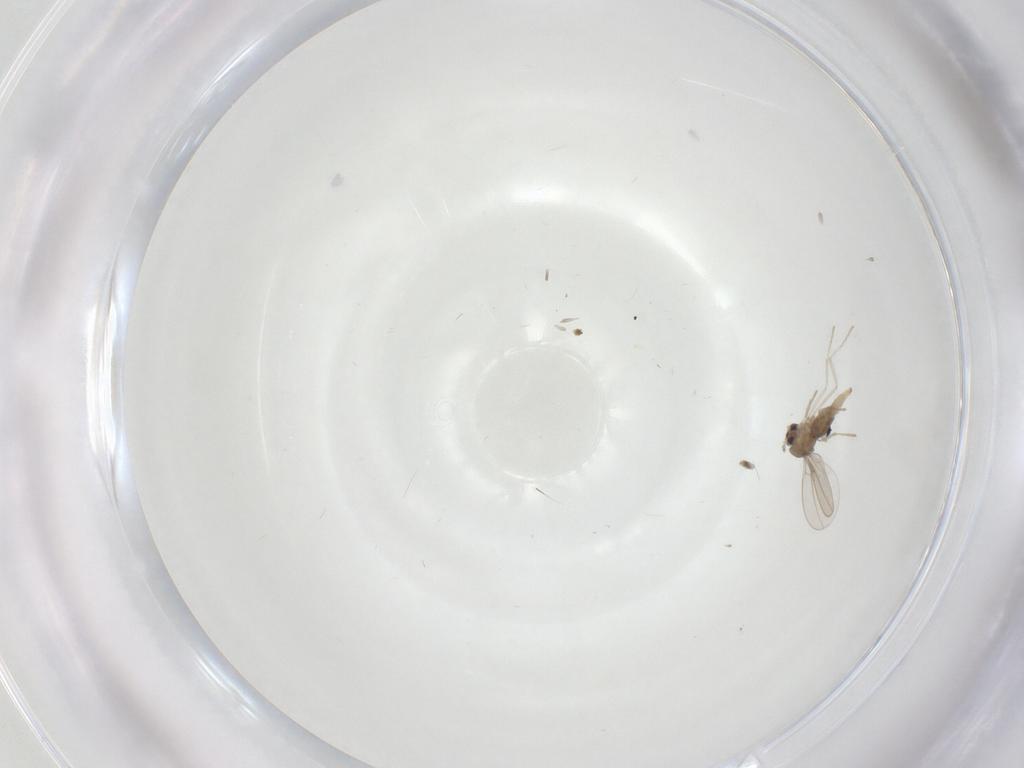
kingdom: Animalia
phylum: Arthropoda
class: Insecta
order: Diptera
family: Cecidomyiidae
